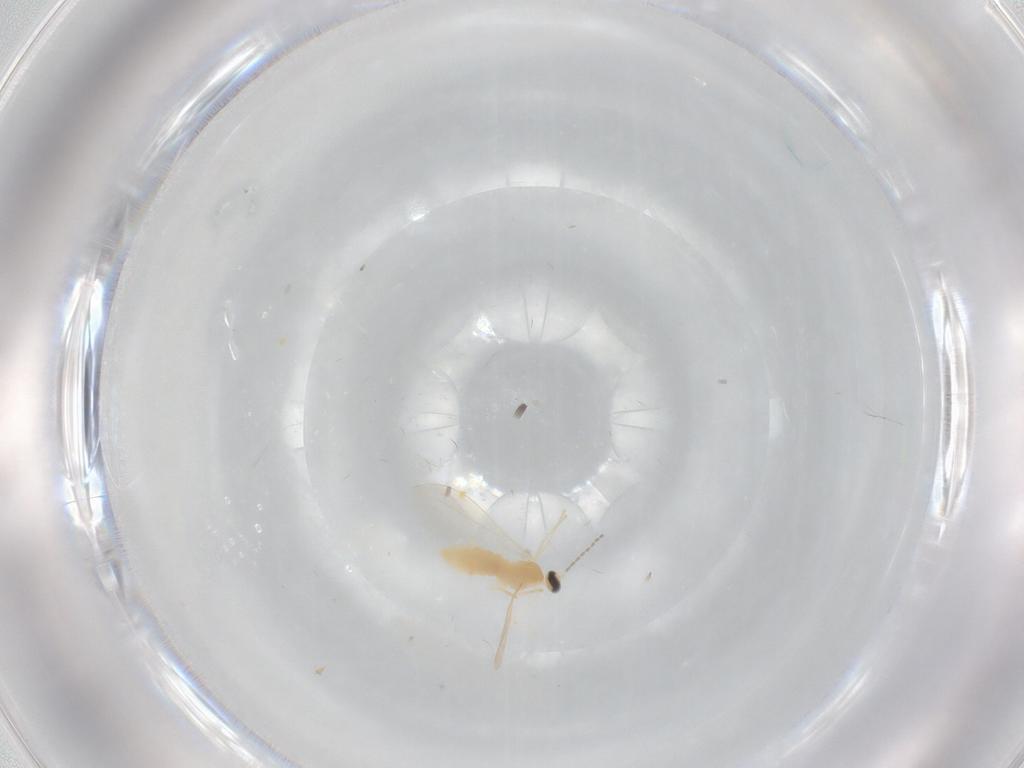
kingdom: Animalia
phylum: Arthropoda
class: Insecta
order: Diptera
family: Cecidomyiidae
